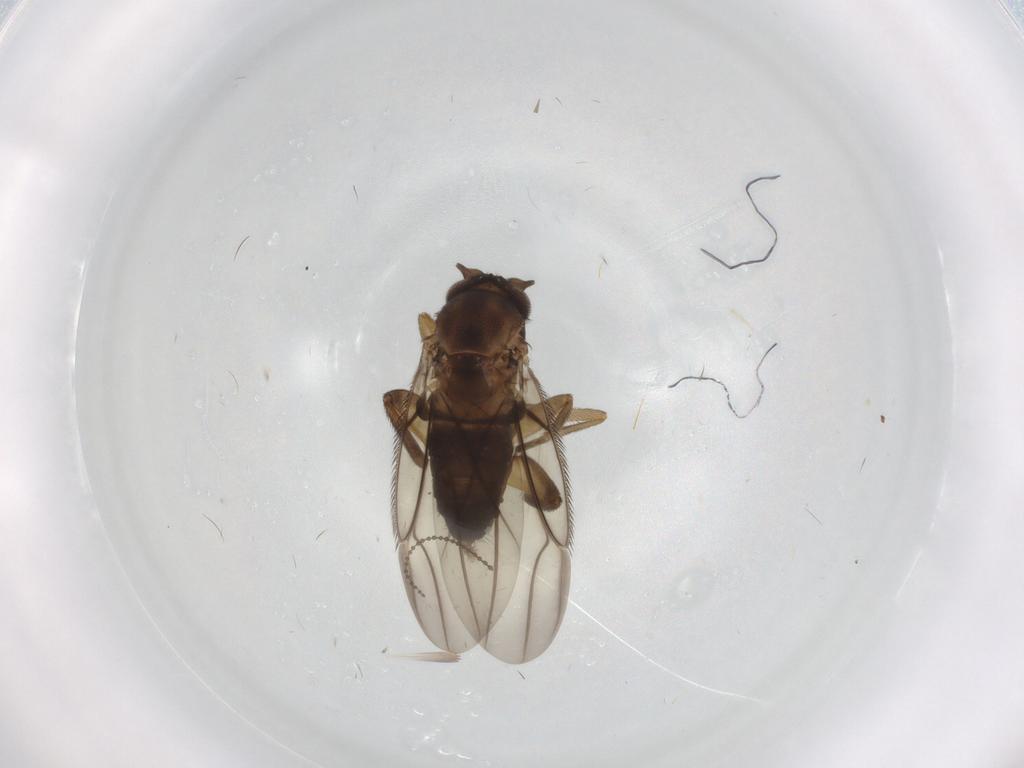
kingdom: Animalia
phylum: Arthropoda
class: Insecta
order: Diptera
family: Phoridae
